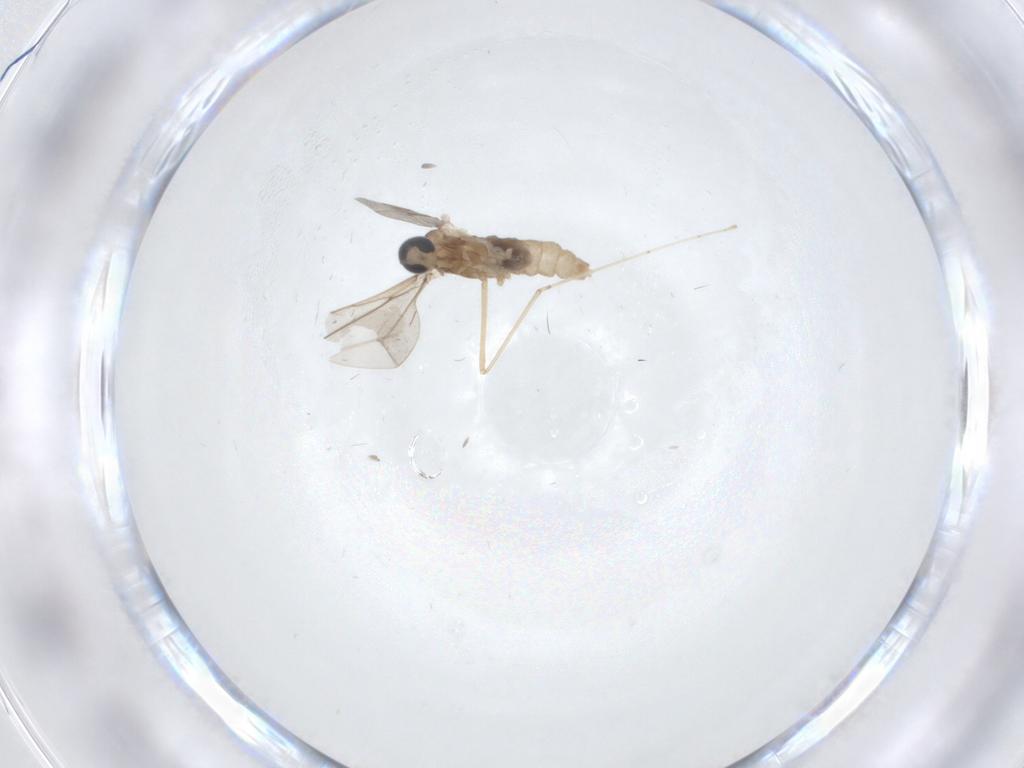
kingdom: Animalia
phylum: Arthropoda
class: Insecta
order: Diptera
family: Cecidomyiidae
